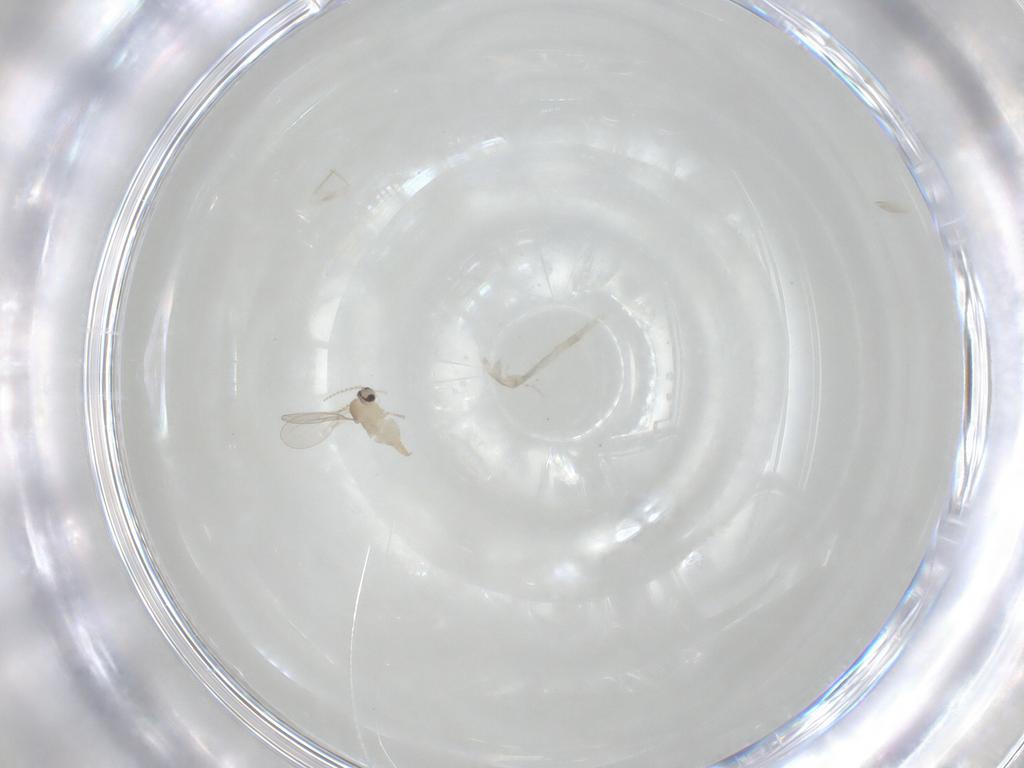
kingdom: Animalia
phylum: Arthropoda
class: Insecta
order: Diptera
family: Cecidomyiidae
